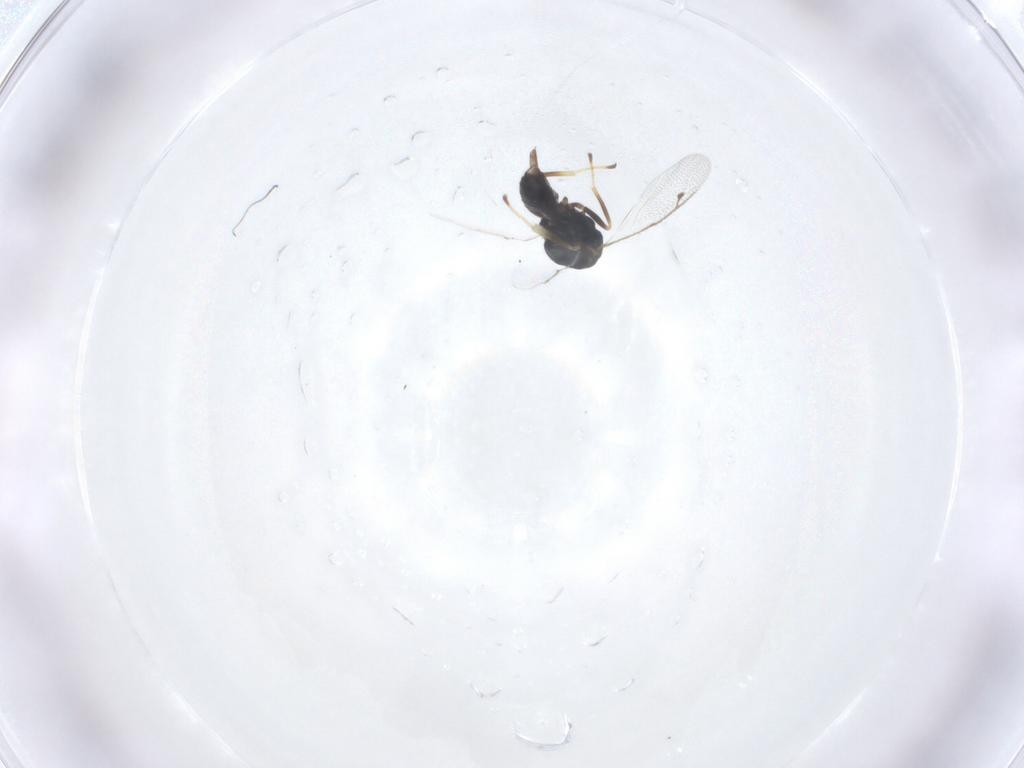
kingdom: Animalia
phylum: Arthropoda
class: Insecta
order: Hymenoptera
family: Pteromalidae
